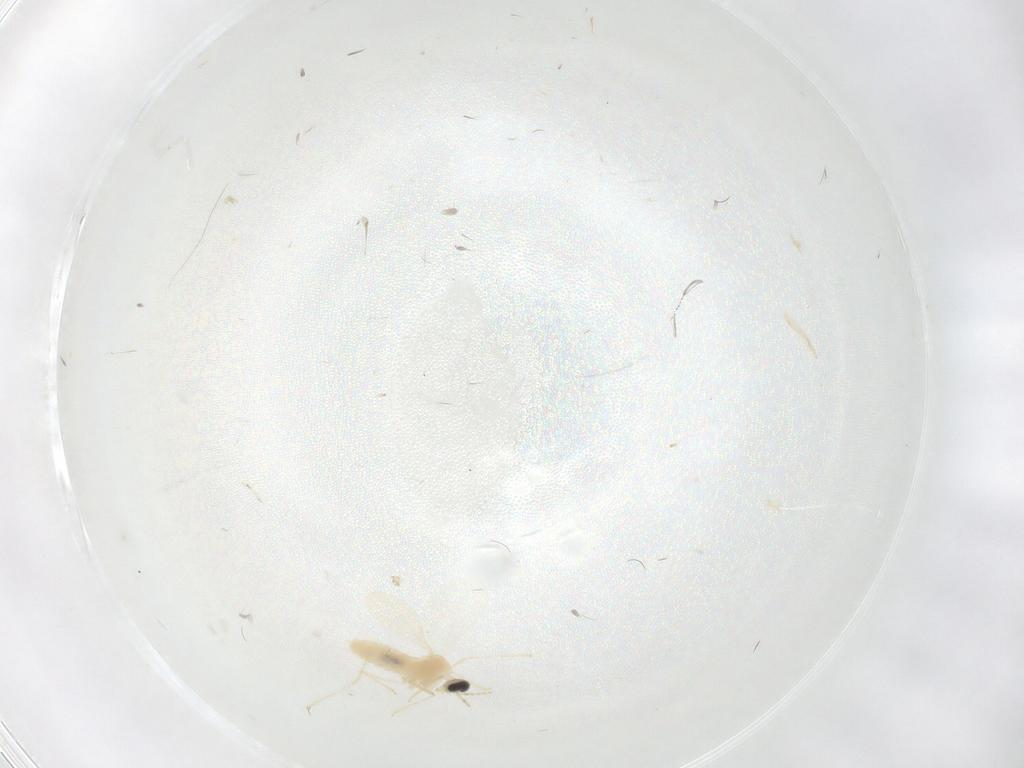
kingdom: Animalia
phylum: Arthropoda
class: Insecta
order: Diptera
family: Cecidomyiidae
